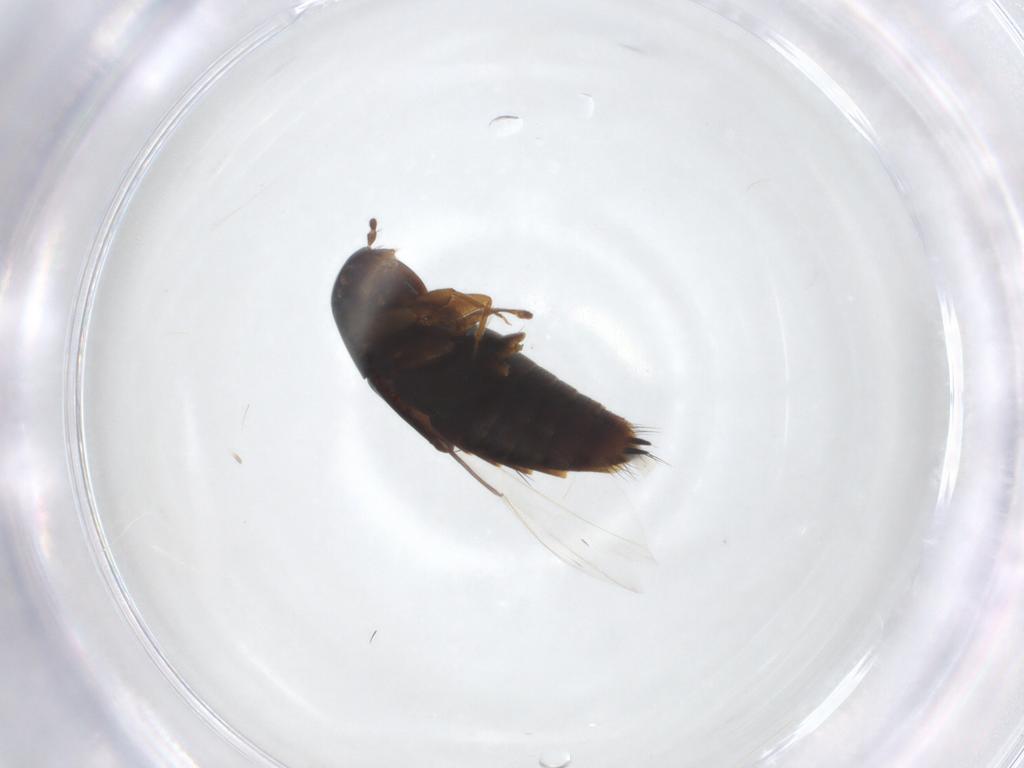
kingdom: Animalia
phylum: Arthropoda
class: Insecta
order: Coleoptera
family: Staphylinidae
